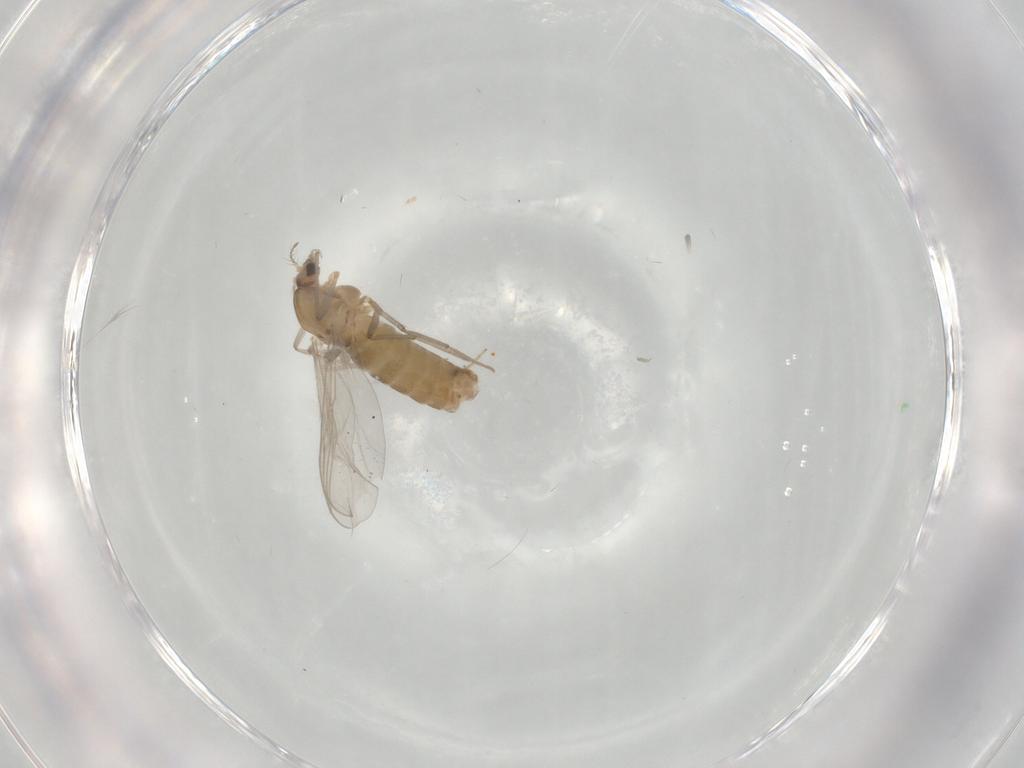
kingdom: Animalia
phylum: Arthropoda
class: Insecta
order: Diptera
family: Chironomidae
